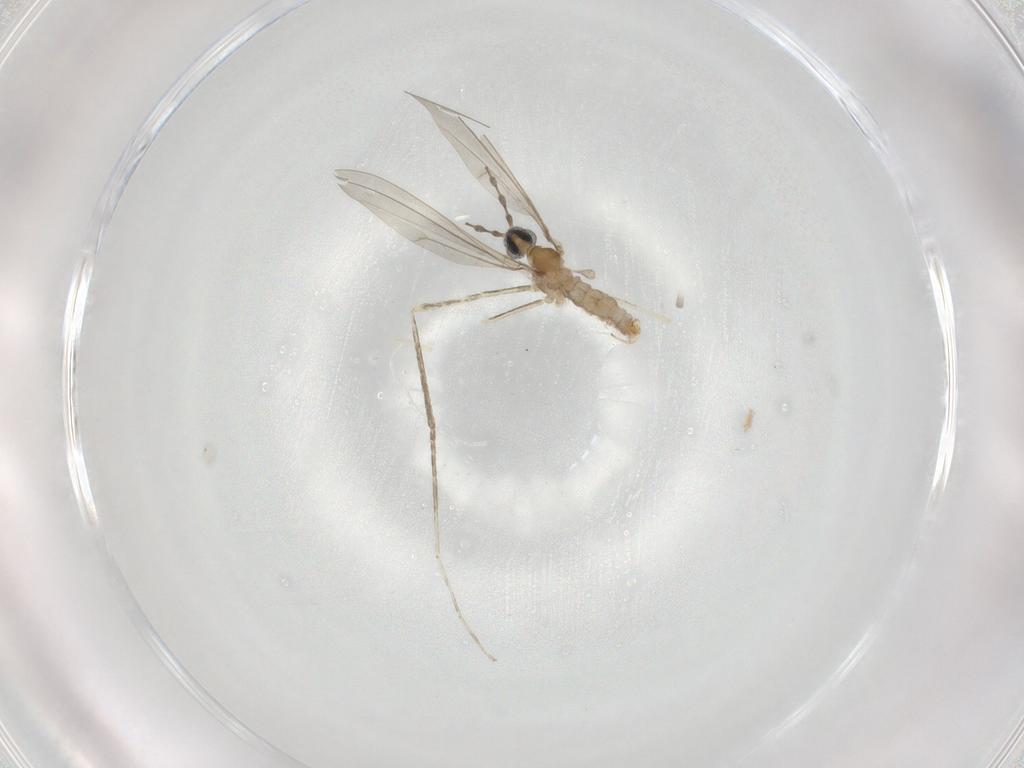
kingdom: Animalia
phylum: Arthropoda
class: Insecta
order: Diptera
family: Cecidomyiidae
